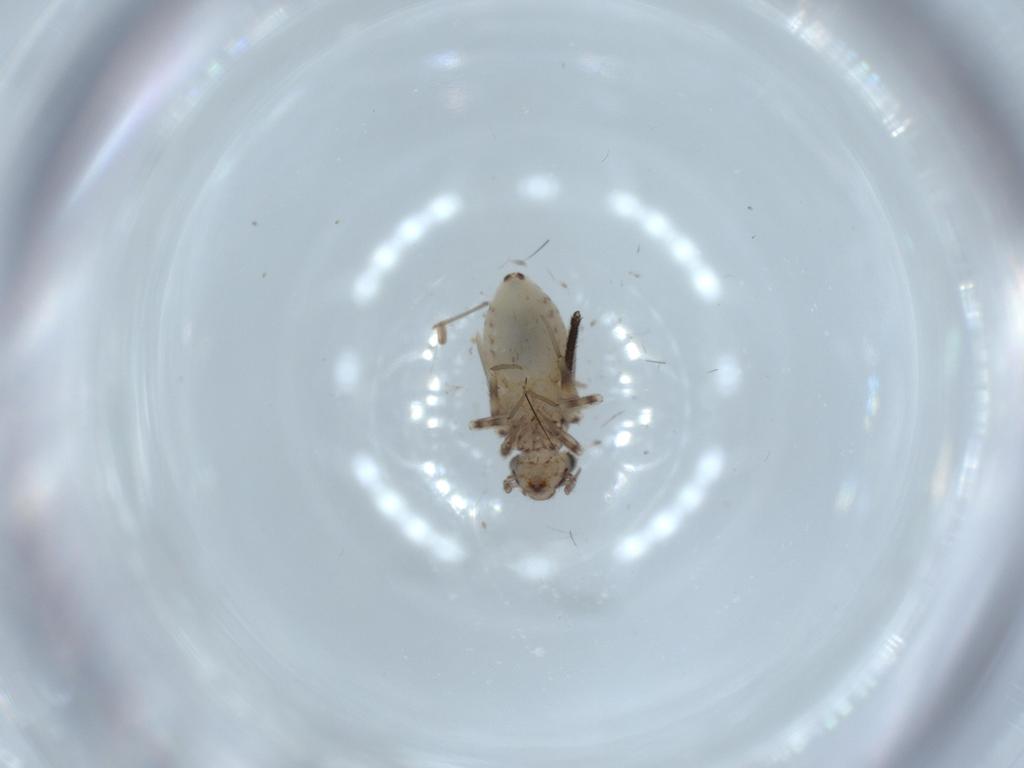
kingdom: Animalia
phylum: Arthropoda
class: Insecta
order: Psocodea
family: Lepidopsocidae
